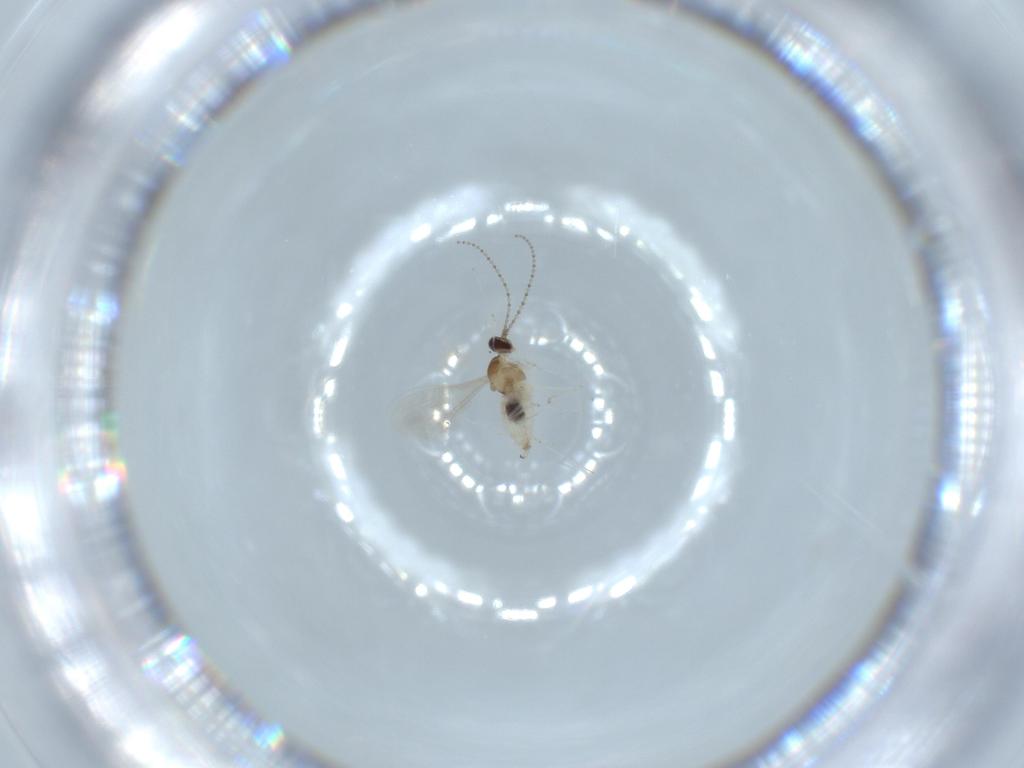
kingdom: Animalia
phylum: Arthropoda
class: Insecta
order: Diptera
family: Cecidomyiidae
